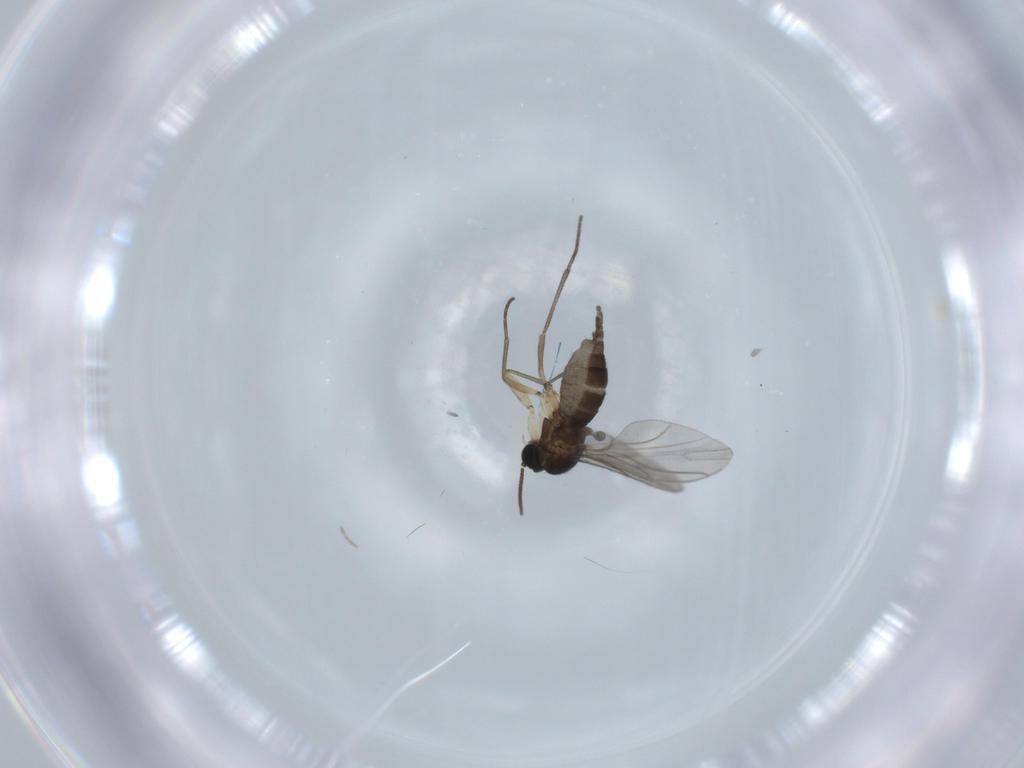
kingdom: Animalia
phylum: Arthropoda
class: Insecta
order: Diptera
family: Sciaridae
